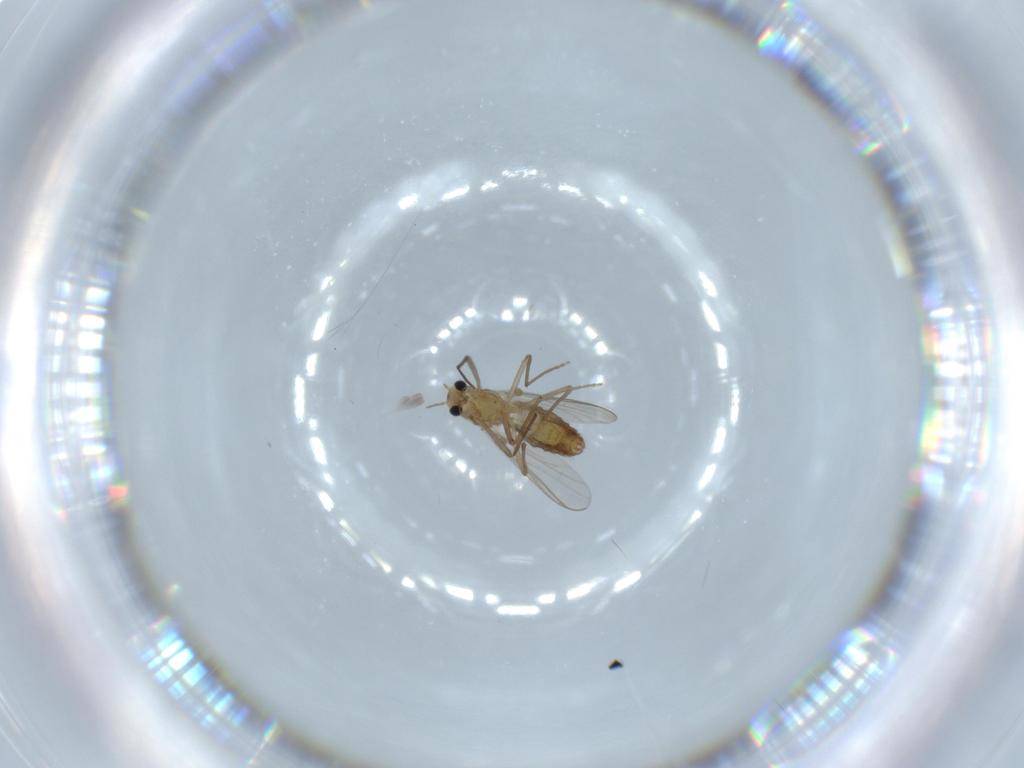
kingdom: Animalia
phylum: Arthropoda
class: Insecta
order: Diptera
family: Chironomidae
